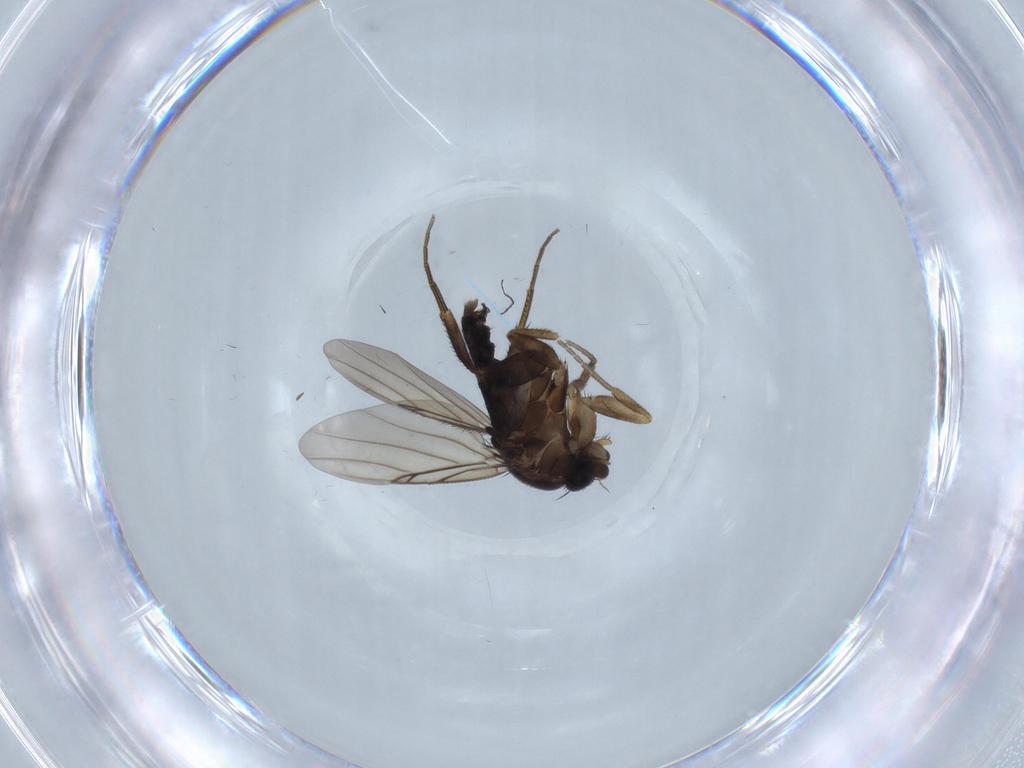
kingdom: Animalia
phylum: Arthropoda
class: Insecta
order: Diptera
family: Phoridae
